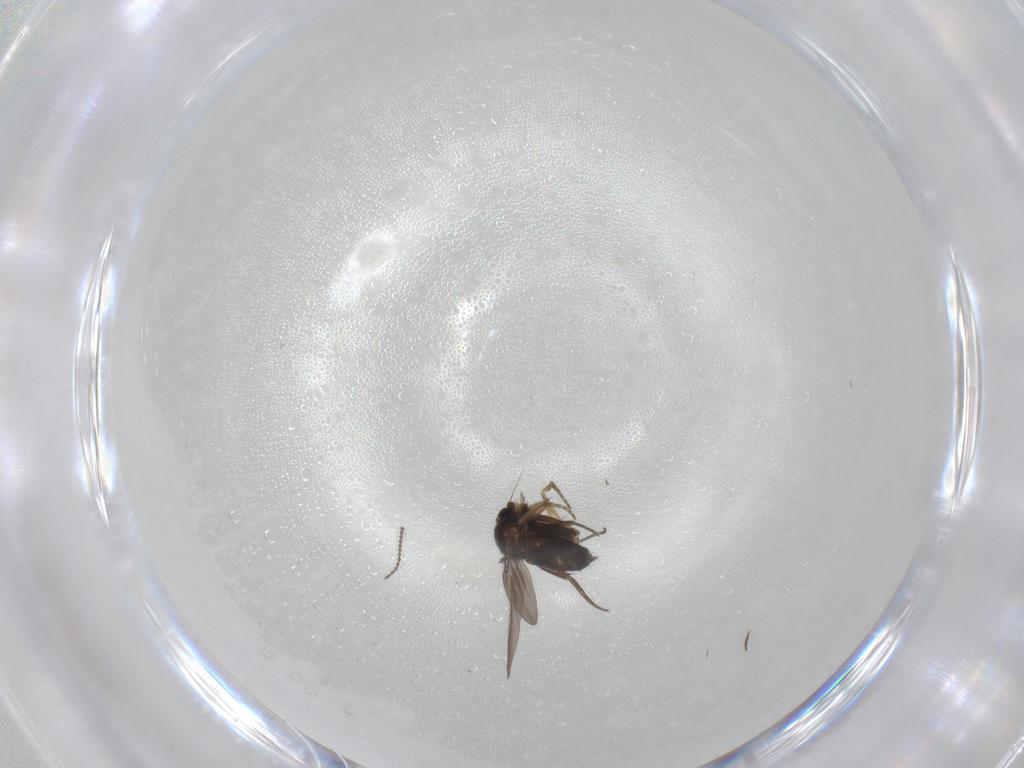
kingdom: Animalia
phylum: Arthropoda
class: Insecta
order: Diptera
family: Phoridae
